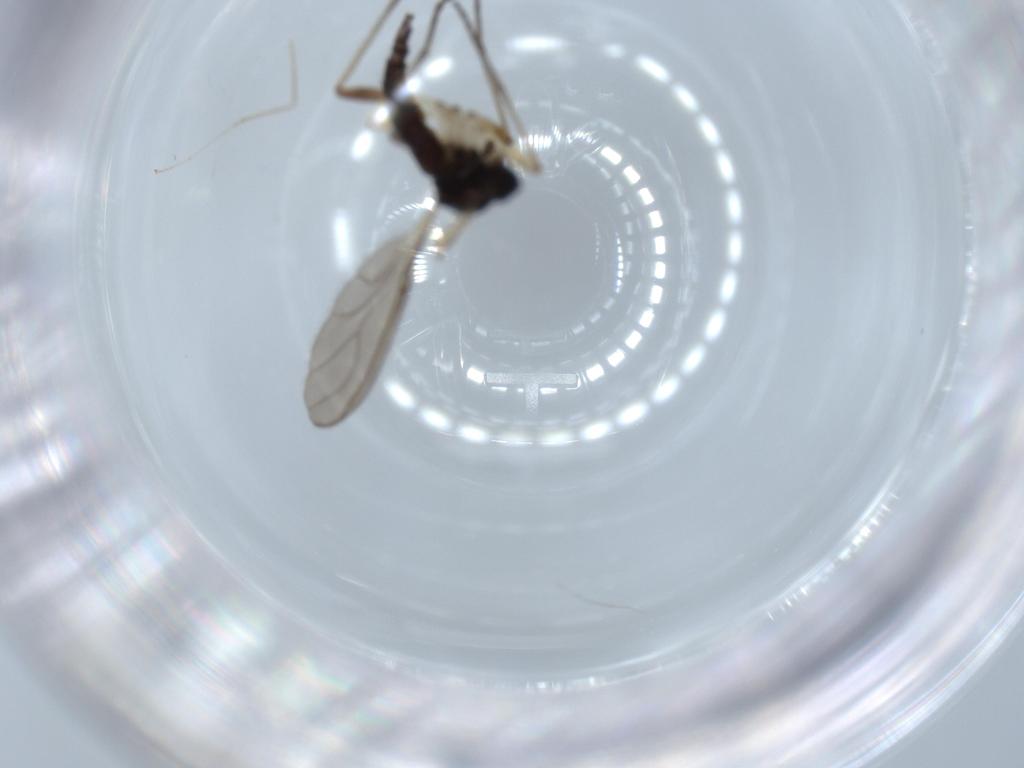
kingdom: Animalia
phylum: Arthropoda
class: Insecta
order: Diptera
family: Sciaridae
